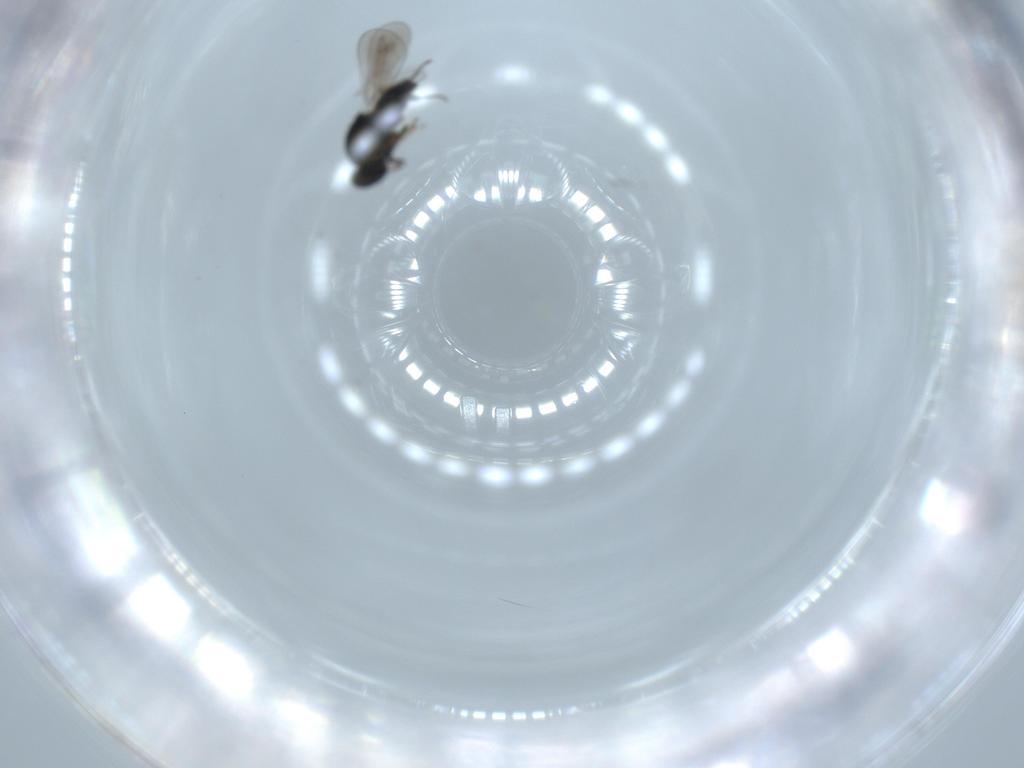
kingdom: Animalia
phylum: Arthropoda
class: Insecta
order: Hymenoptera
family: Platygastridae
